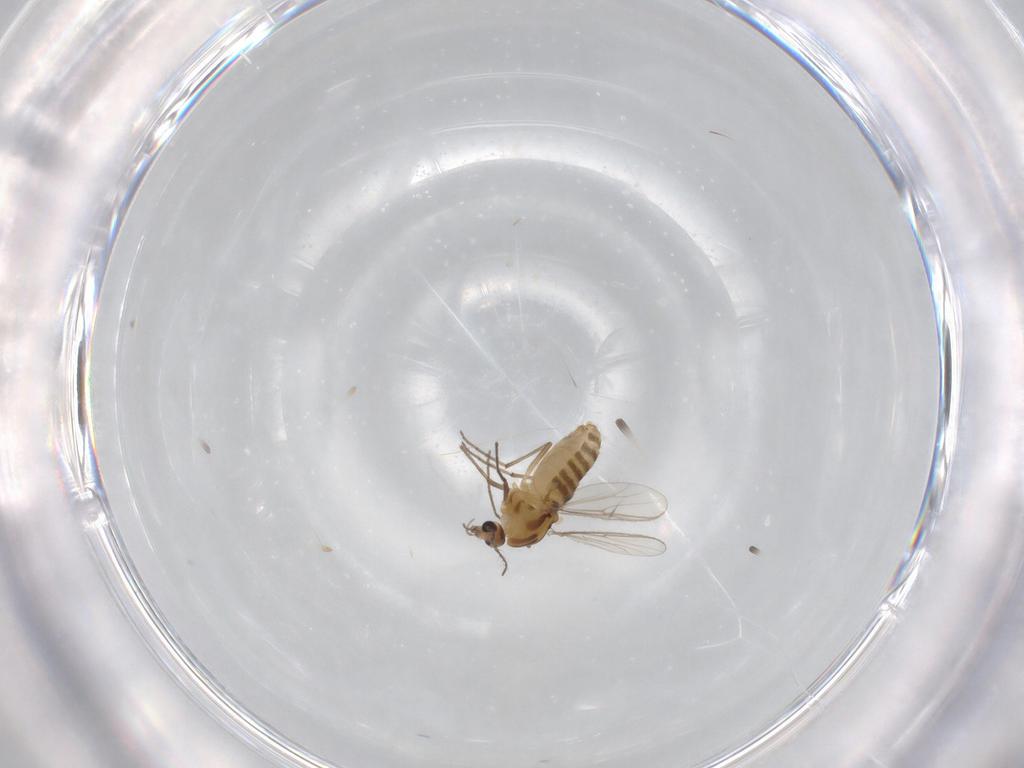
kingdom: Animalia
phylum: Arthropoda
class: Insecta
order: Diptera
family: Chironomidae
